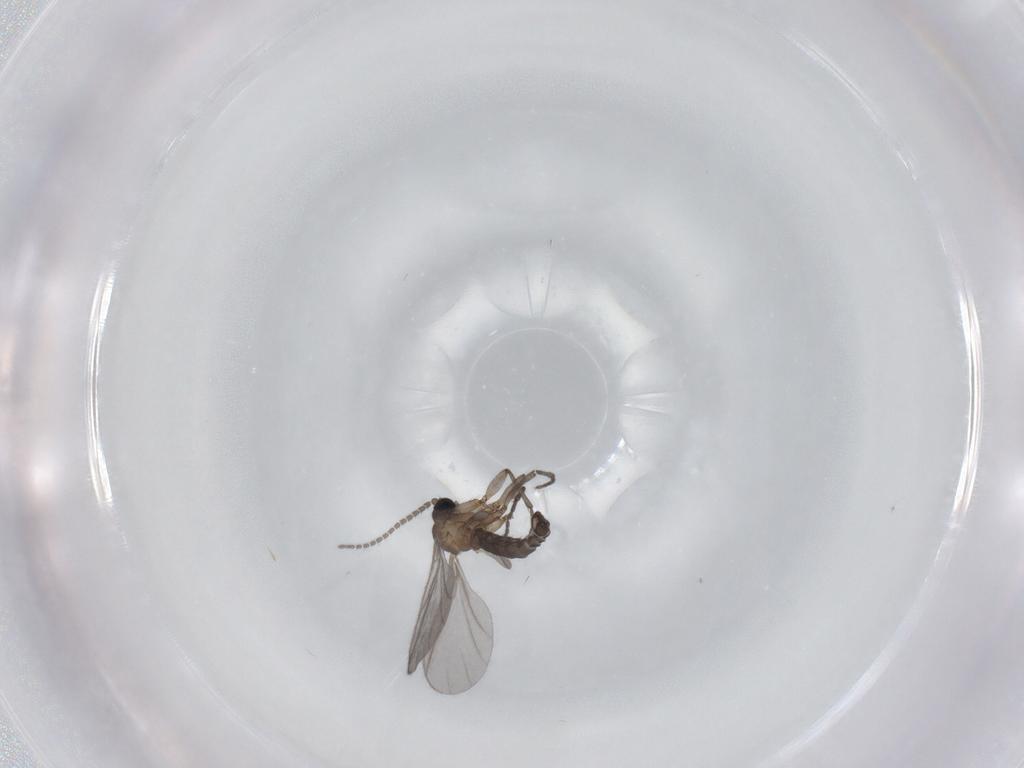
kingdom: Animalia
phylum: Arthropoda
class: Insecta
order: Diptera
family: Sciaridae
